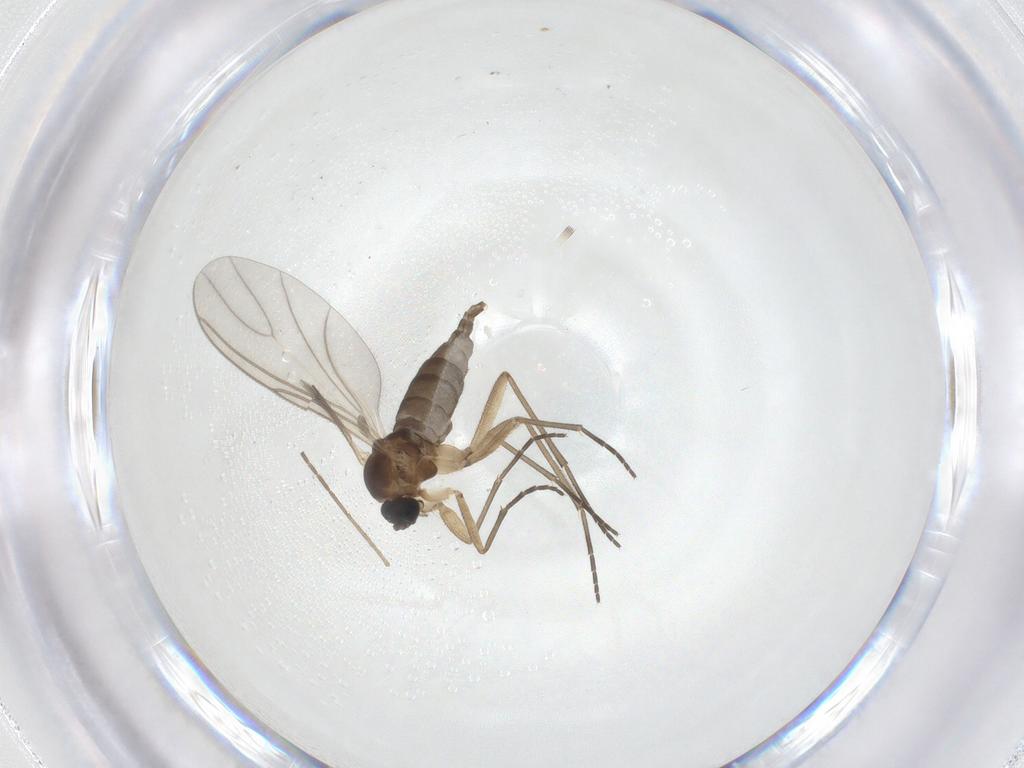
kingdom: Animalia
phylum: Arthropoda
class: Insecta
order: Diptera
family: Sciaridae
